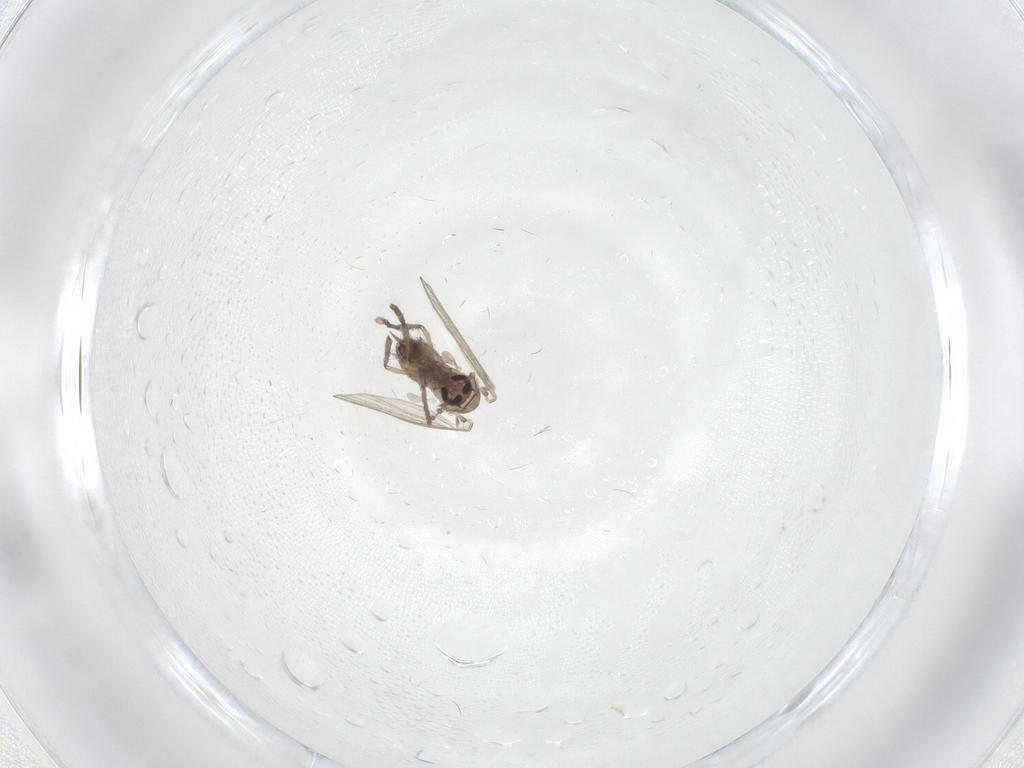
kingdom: Animalia
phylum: Arthropoda
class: Insecta
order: Diptera
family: Psychodidae
